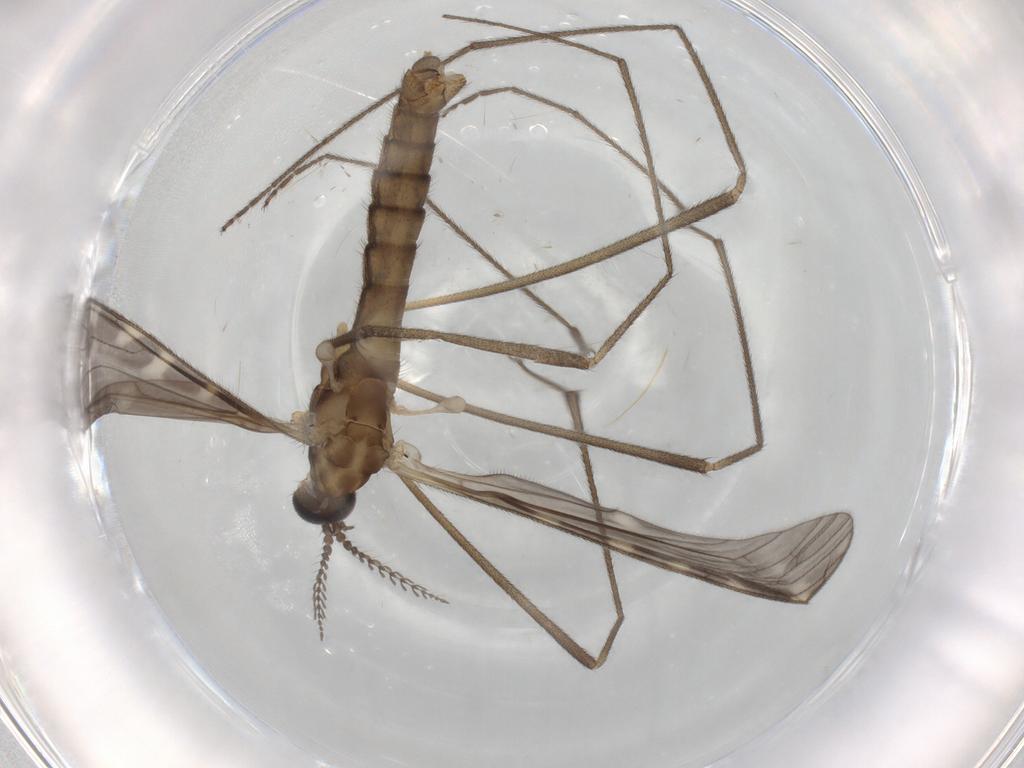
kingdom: Animalia
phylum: Arthropoda
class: Insecta
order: Diptera
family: Limoniidae
